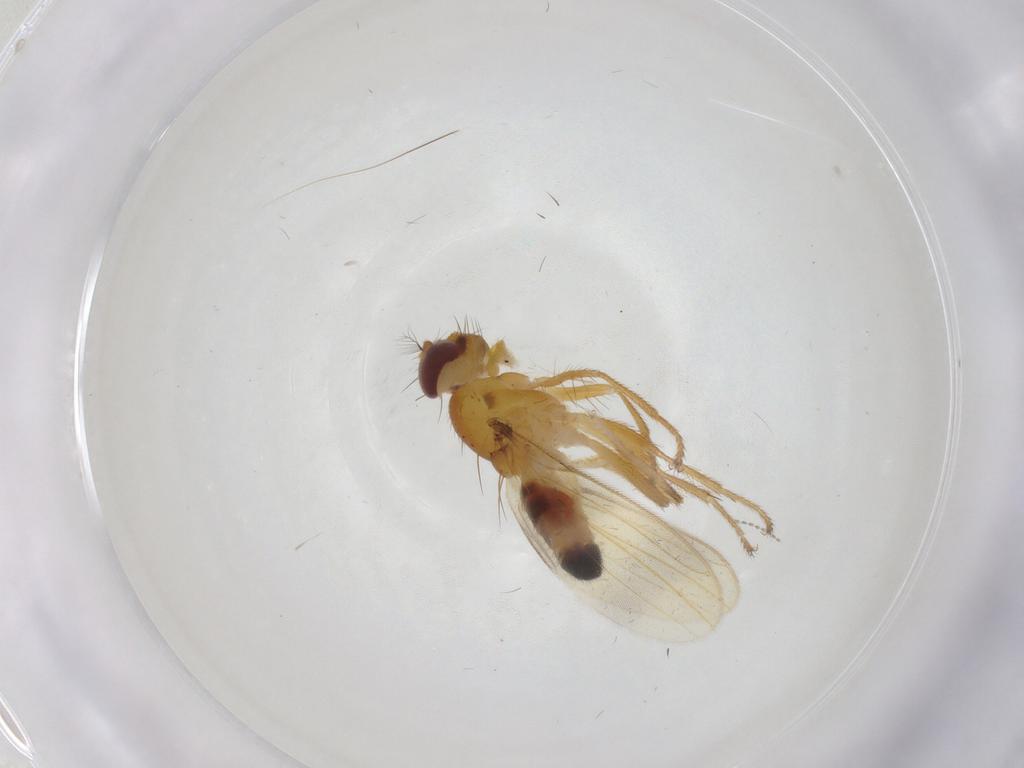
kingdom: Animalia
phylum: Arthropoda
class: Insecta
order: Diptera
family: Periscelididae
